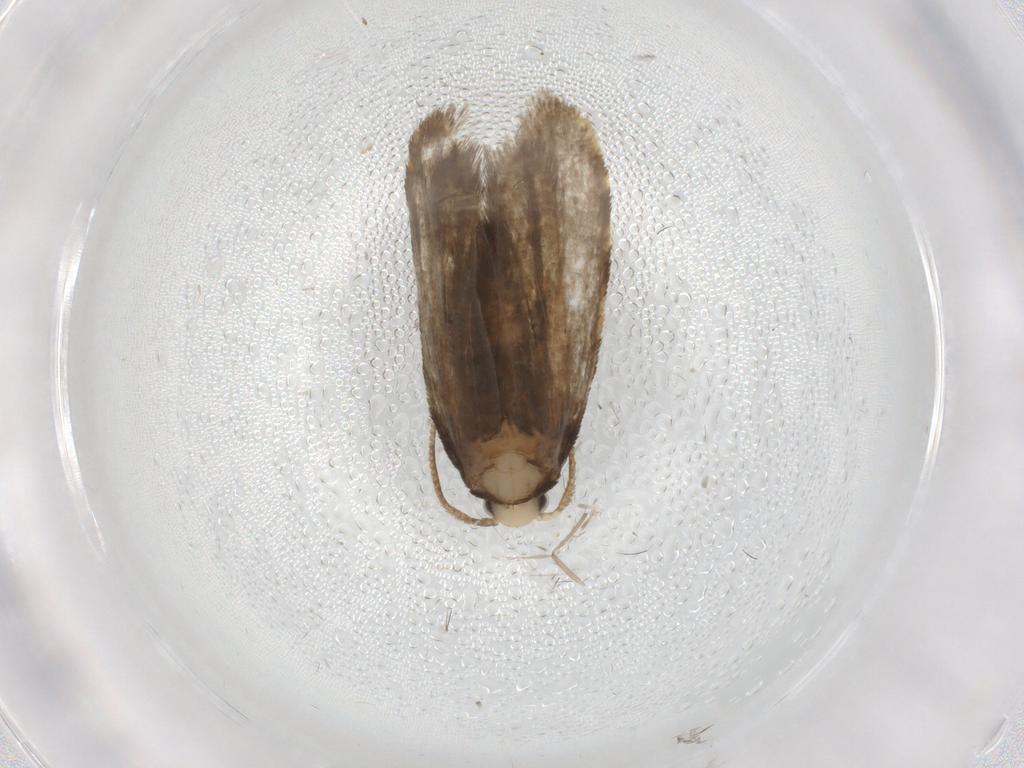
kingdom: Animalia
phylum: Arthropoda
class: Insecta
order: Lepidoptera
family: Psychidae
